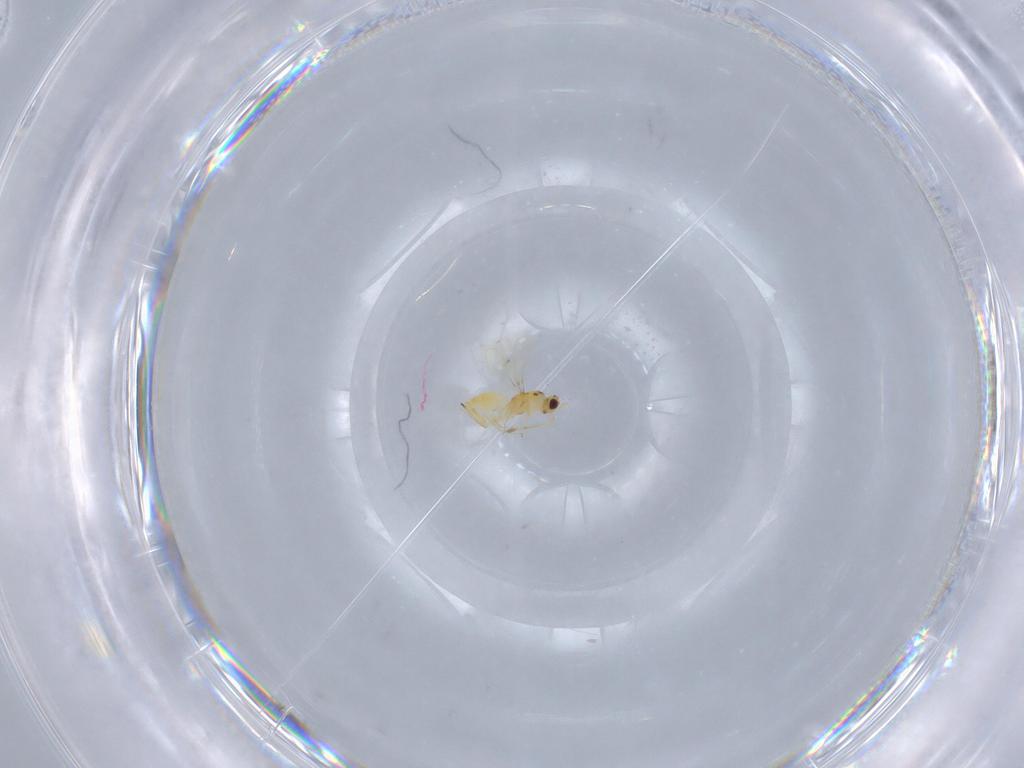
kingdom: Animalia
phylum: Arthropoda
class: Insecta
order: Hymenoptera
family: Mymaridae
